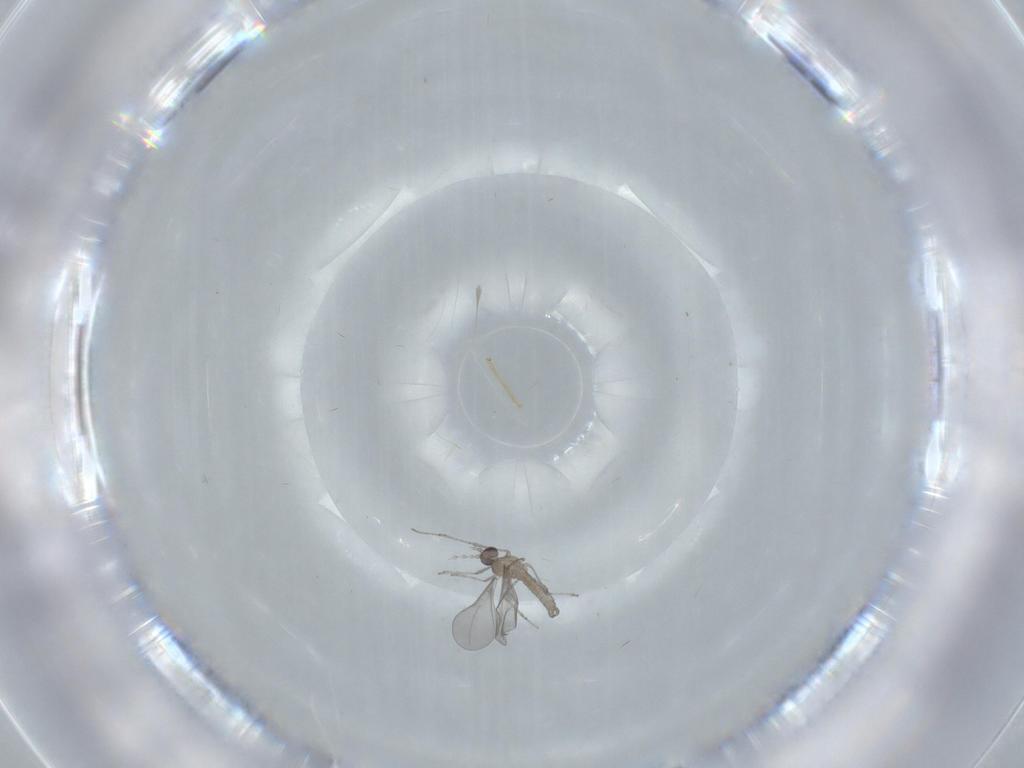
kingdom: Animalia
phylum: Arthropoda
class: Insecta
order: Diptera
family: Cecidomyiidae
